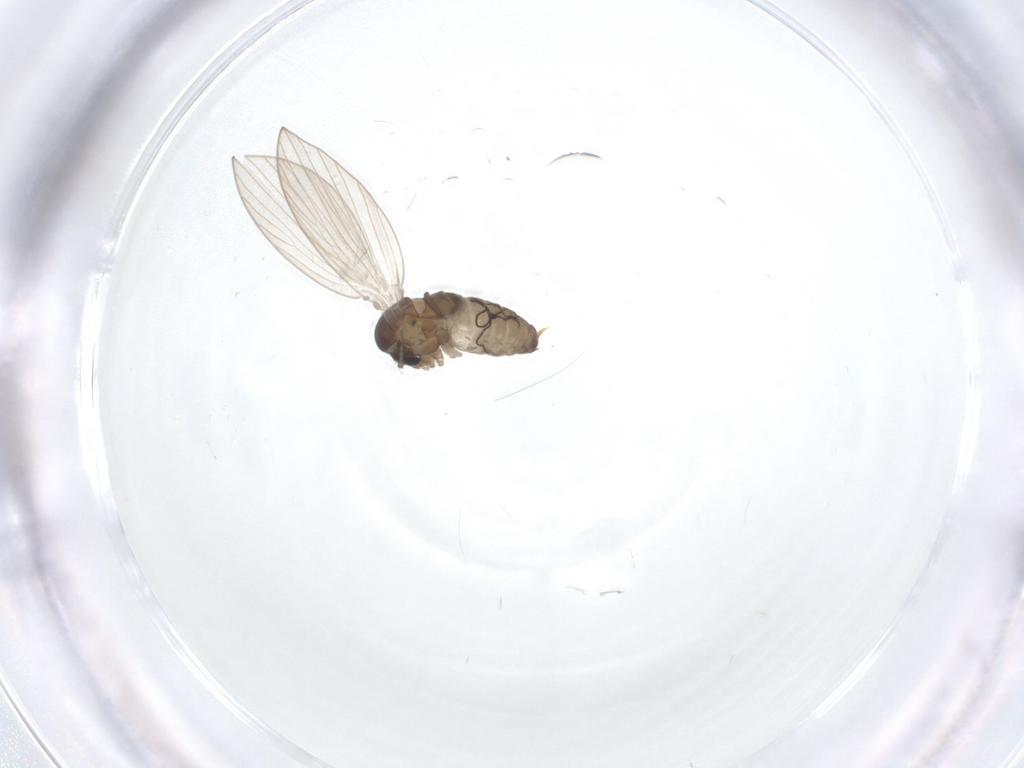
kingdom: Animalia
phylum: Arthropoda
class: Insecta
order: Diptera
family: Psychodidae
